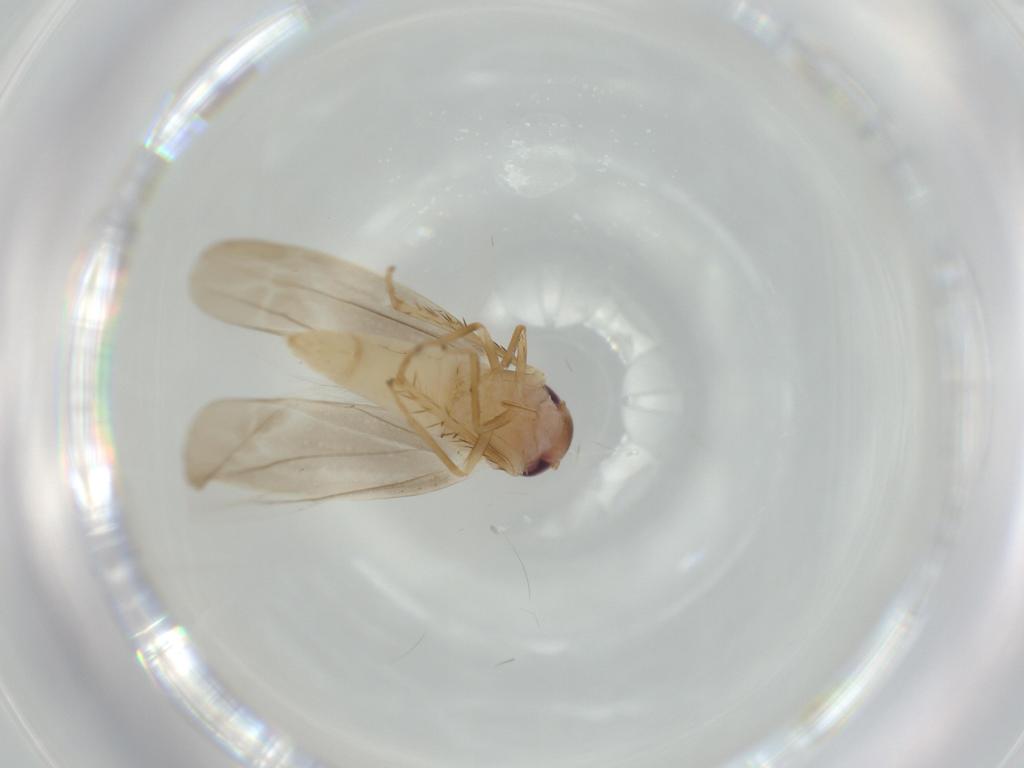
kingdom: Animalia
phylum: Arthropoda
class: Insecta
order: Hemiptera
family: Cicadellidae
